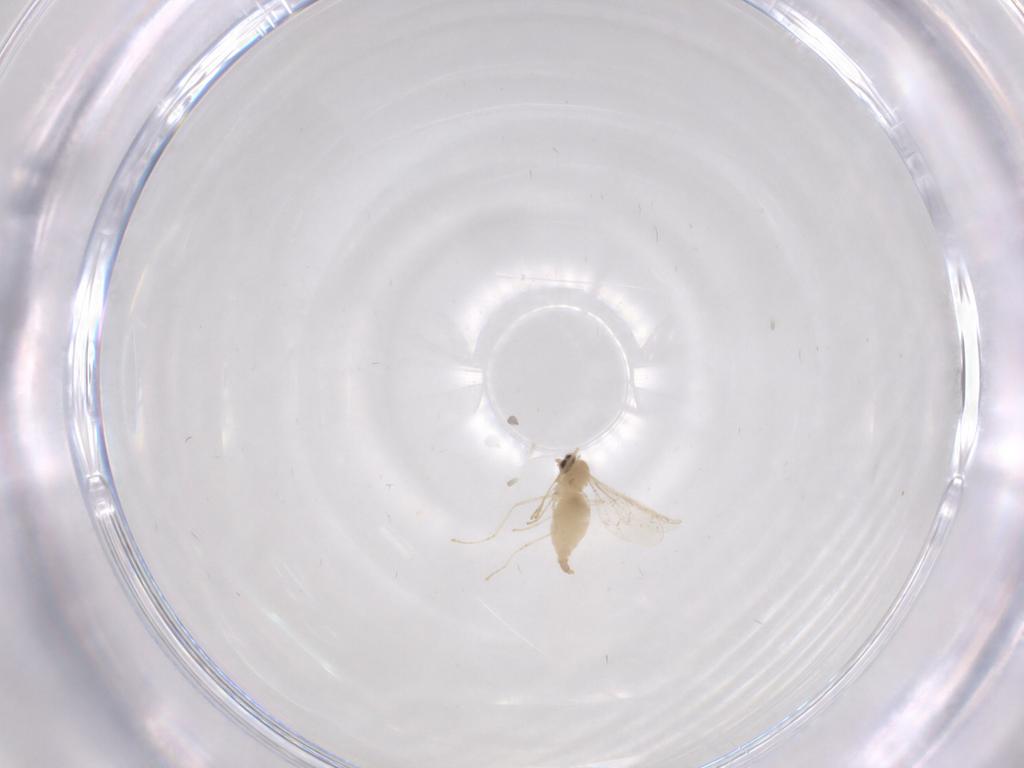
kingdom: Animalia
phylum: Arthropoda
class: Insecta
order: Diptera
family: Cecidomyiidae
